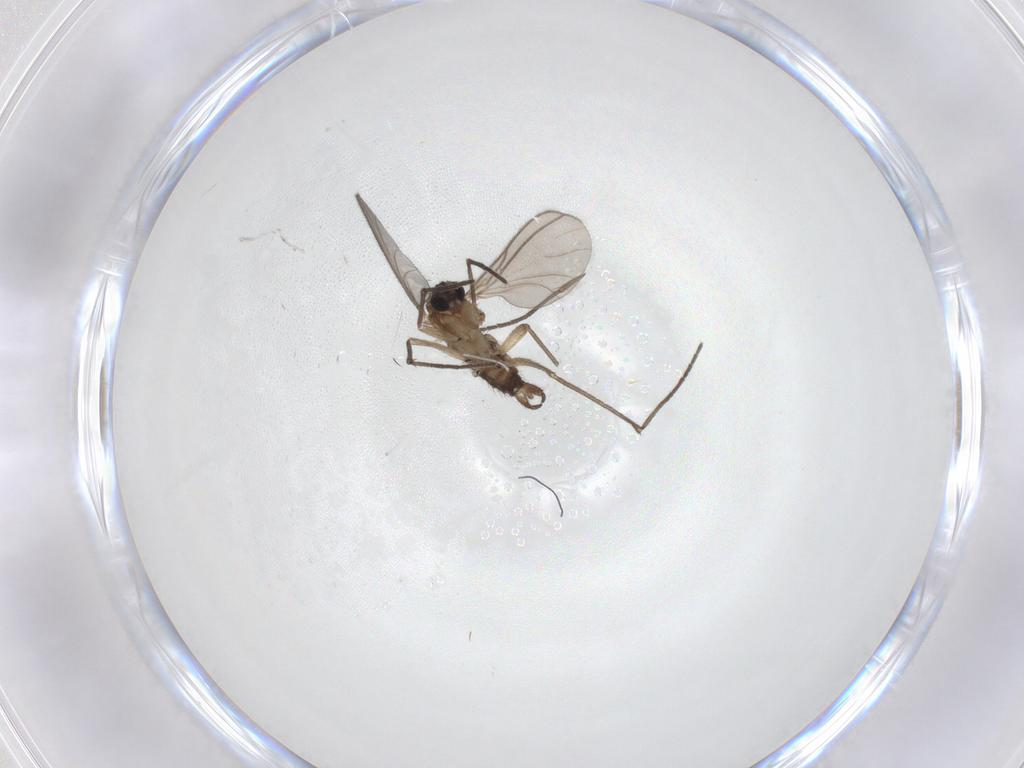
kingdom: Animalia
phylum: Arthropoda
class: Insecta
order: Diptera
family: Sciaridae
